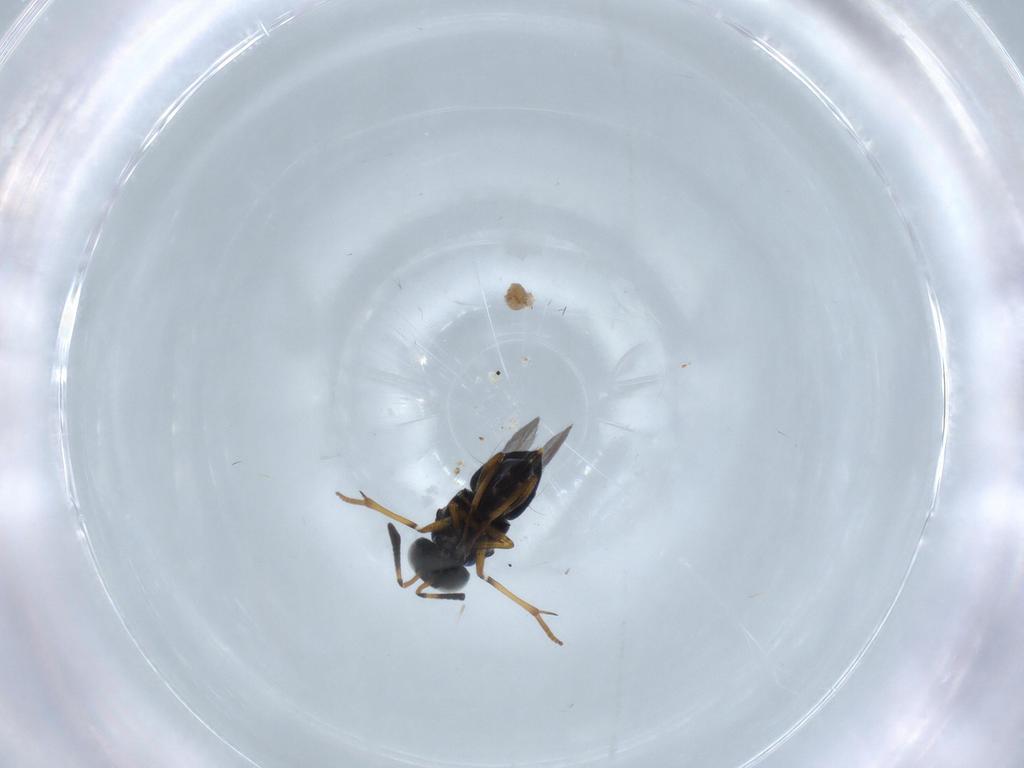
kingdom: Animalia
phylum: Arthropoda
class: Insecta
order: Hymenoptera
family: Encyrtidae
